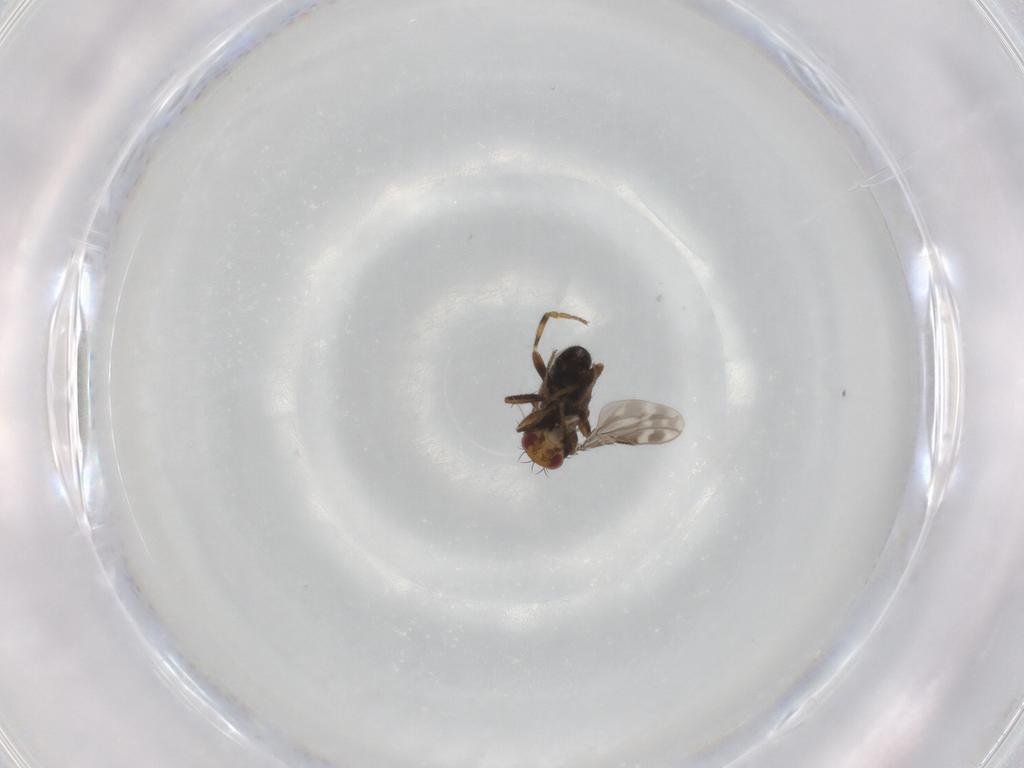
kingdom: Animalia
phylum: Arthropoda
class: Insecta
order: Diptera
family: Sphaeroceridae
